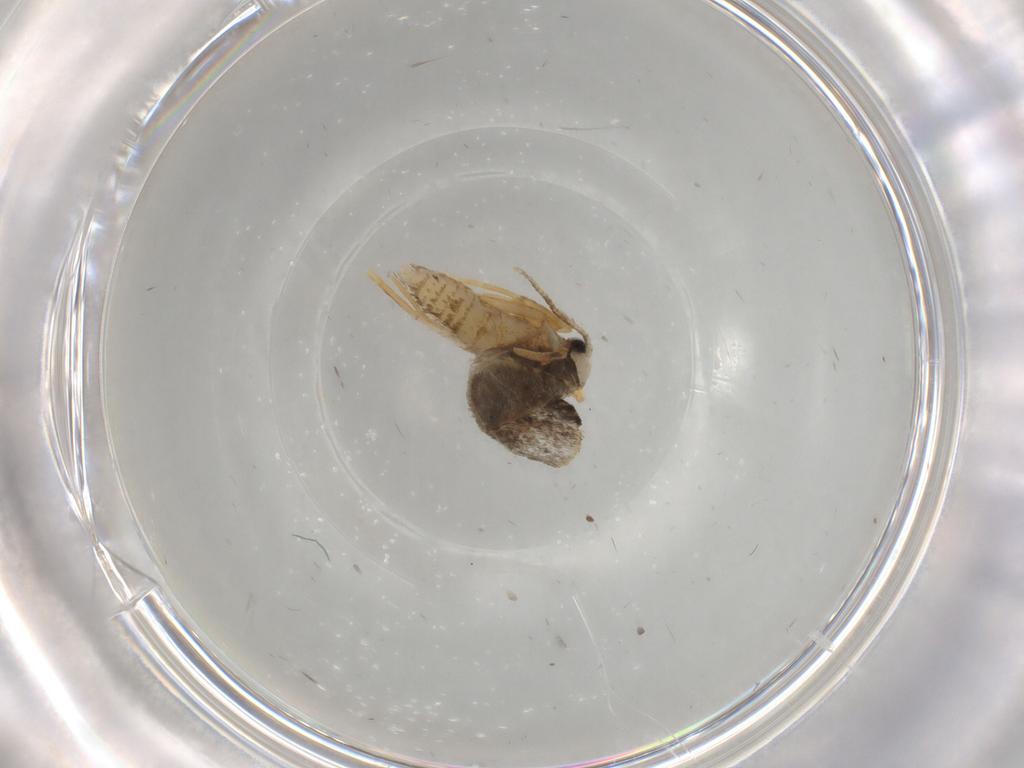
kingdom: Animalia
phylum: Arthropoda
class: Insecta
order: Lepidoptera
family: Psychidae
